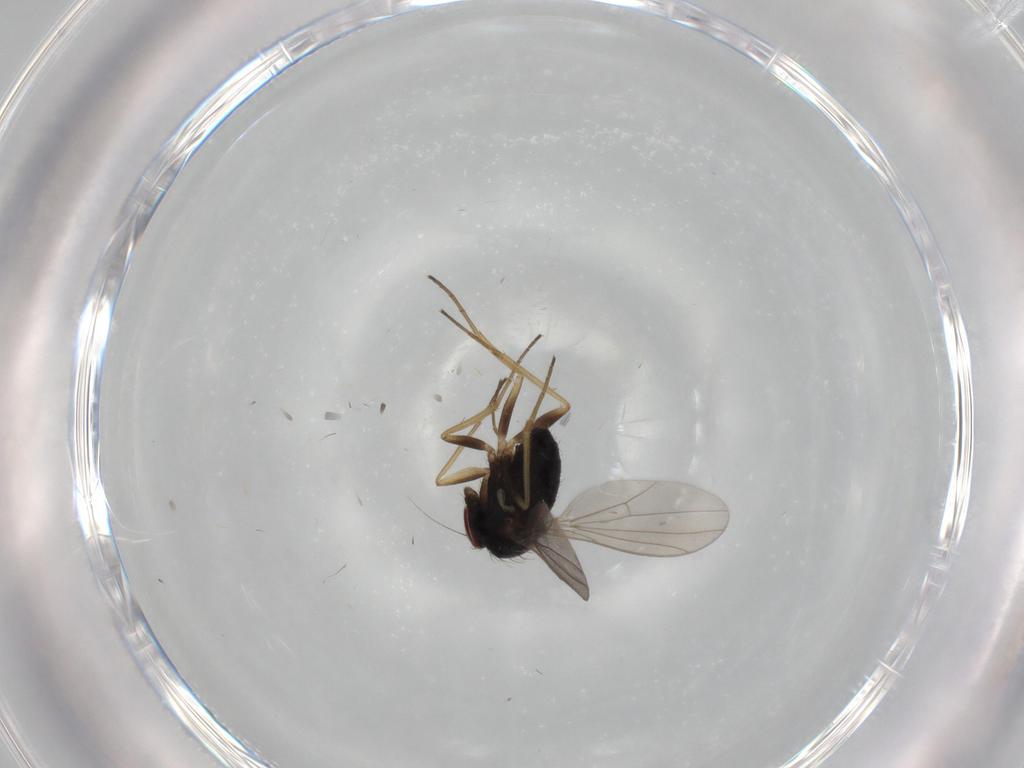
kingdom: Animalia
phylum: Arthropoda
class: Insecta
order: Diptera
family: Dolichopodidae
